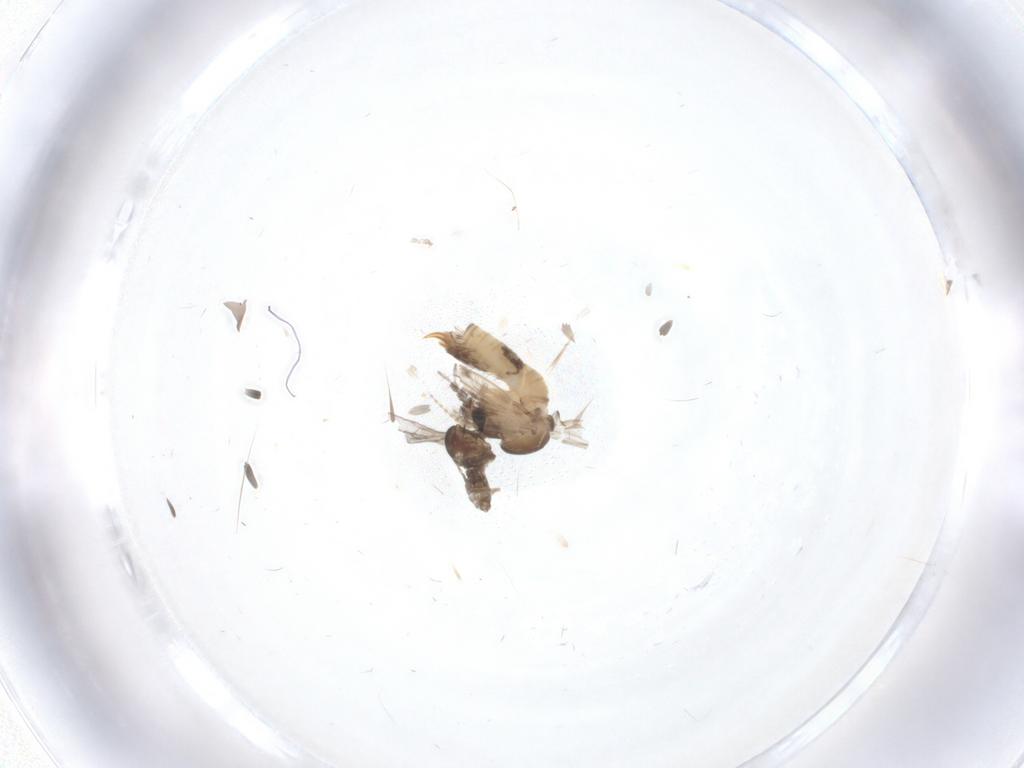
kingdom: Animalia
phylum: Arthropoda
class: Insecta
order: Diptera
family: Cecidomyiidae
